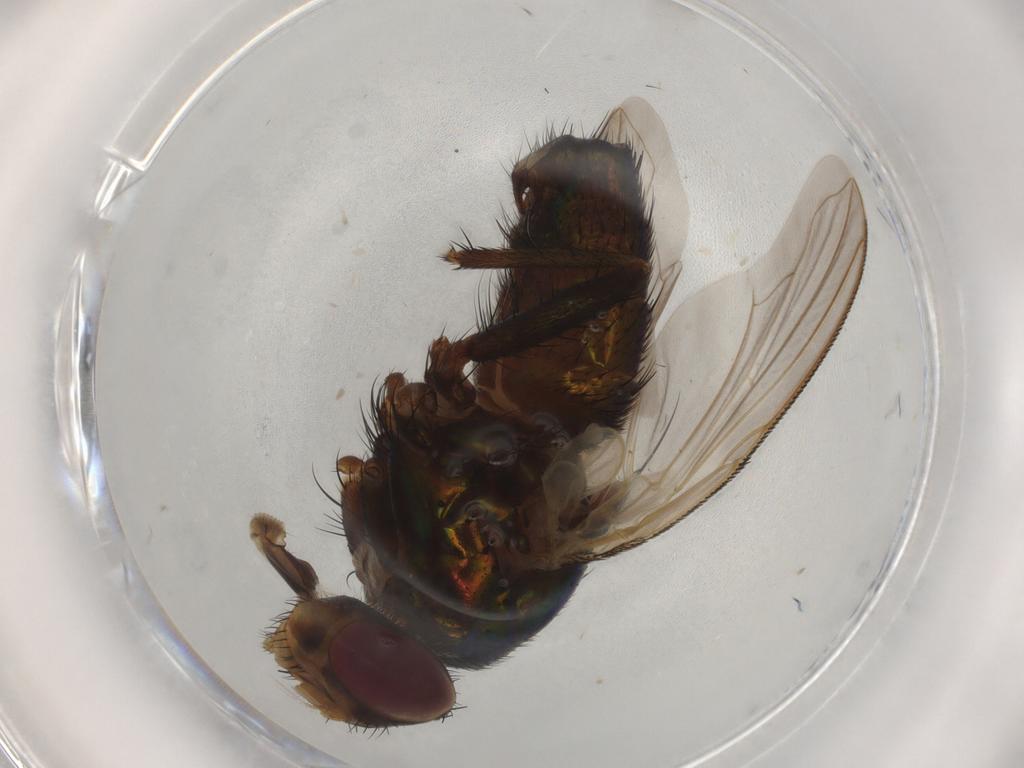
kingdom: Animalia
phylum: Arthropoda
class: Insecta
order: Diptera
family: Calliphoridae
